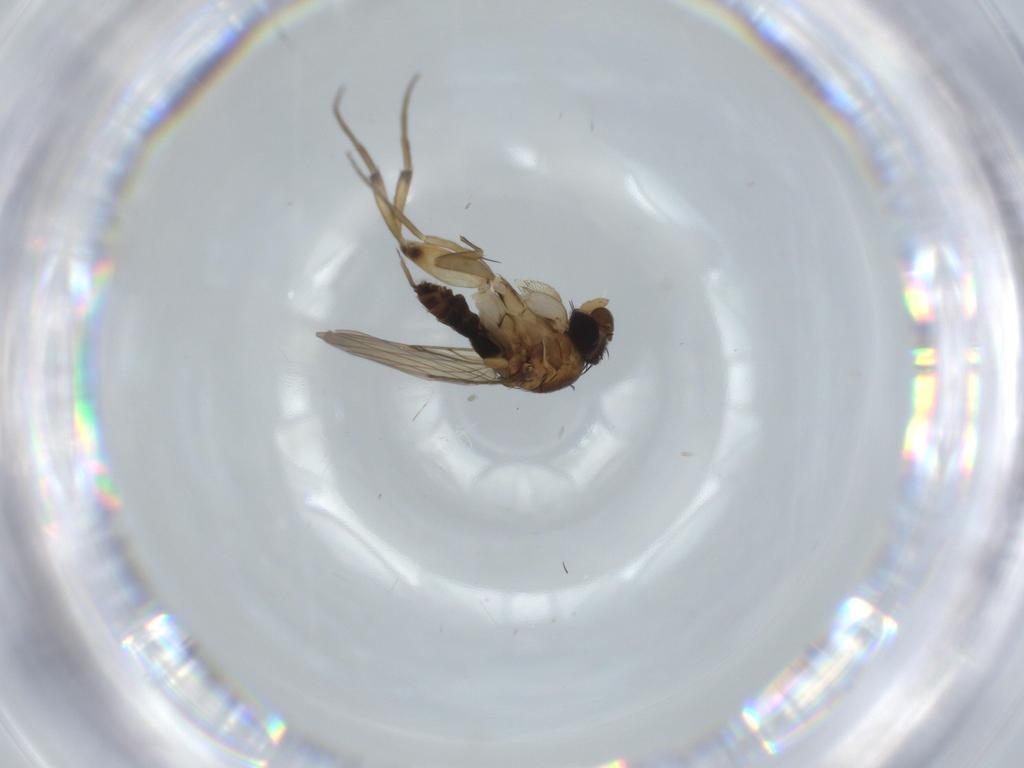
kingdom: Animalia
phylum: Arthropoda
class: Insecta
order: Diptera
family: Phoridae
